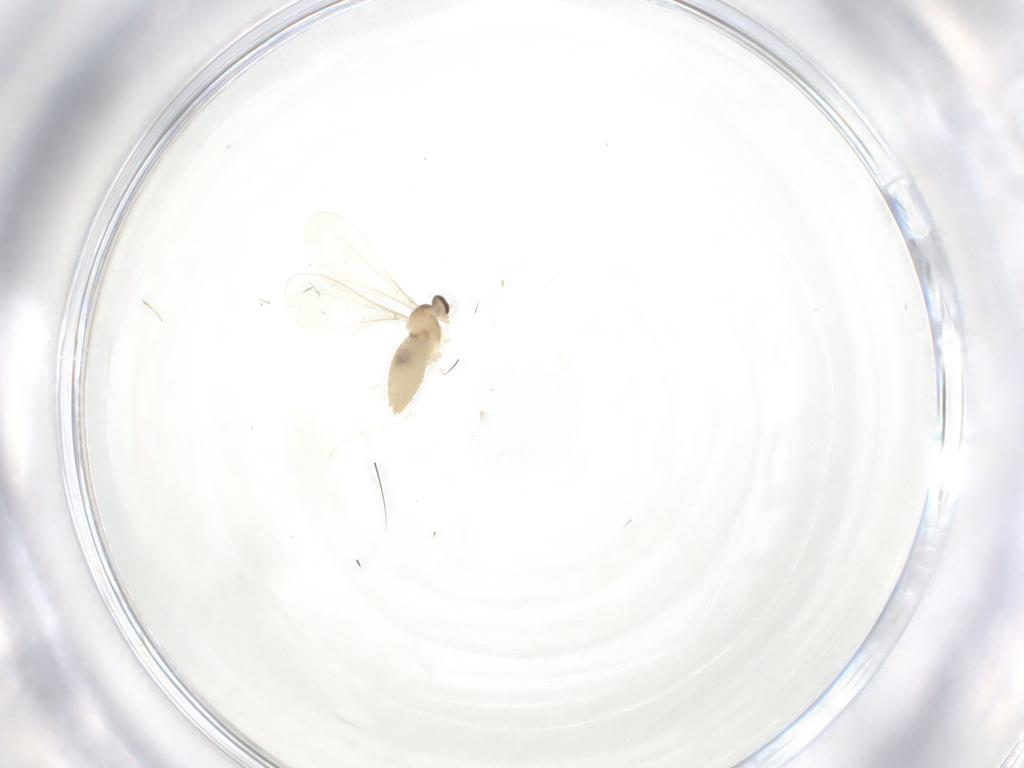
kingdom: Animalia
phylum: Arthropoda
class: Insecta
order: Diptera
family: Cecidomyiidae
